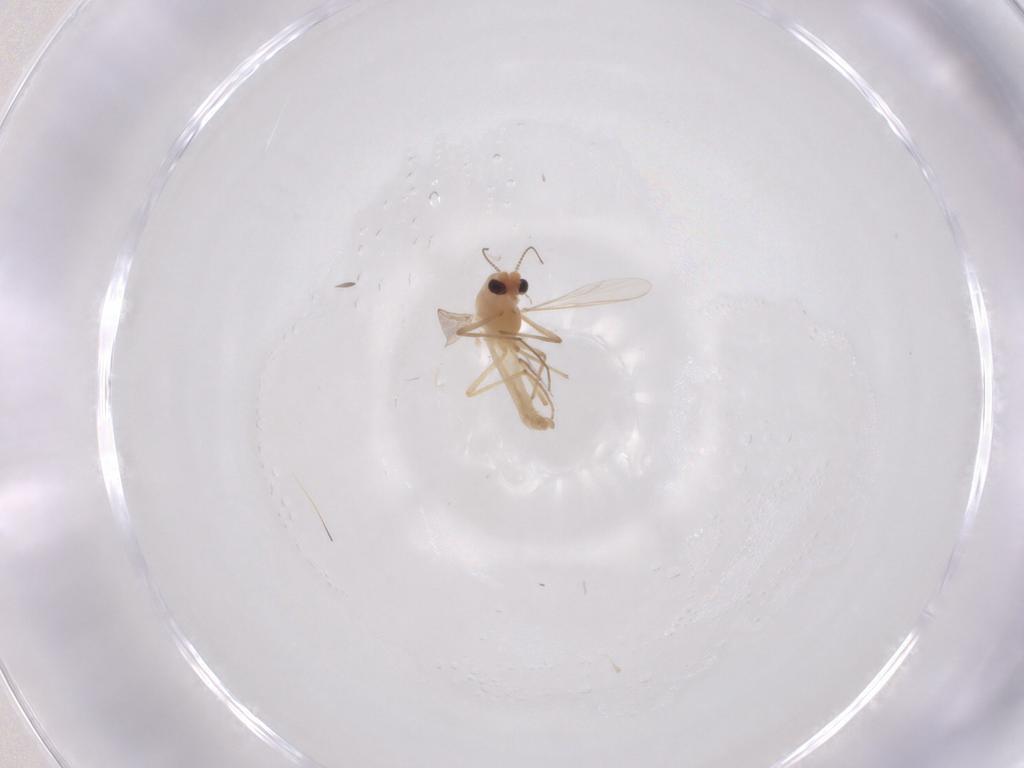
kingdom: Animalia
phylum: Arthropoda
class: Insecta
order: Diptera
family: Chironomidae
